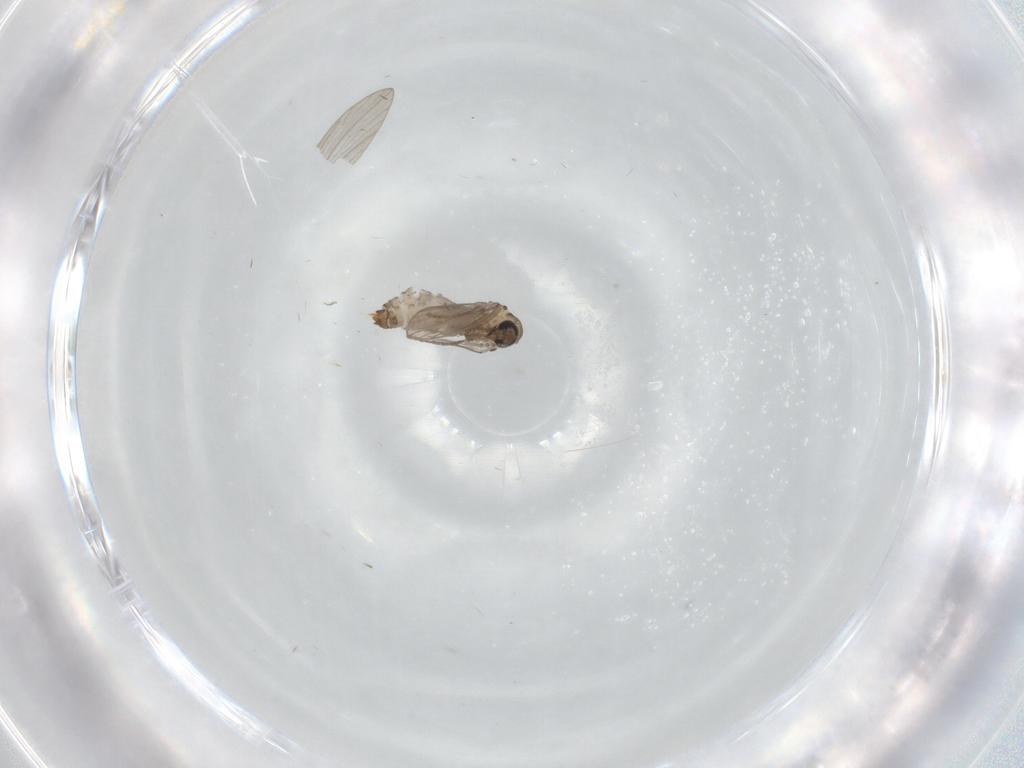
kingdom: Animalia
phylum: Arthropoda
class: Insecta
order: Diptera
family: Psychodidae
